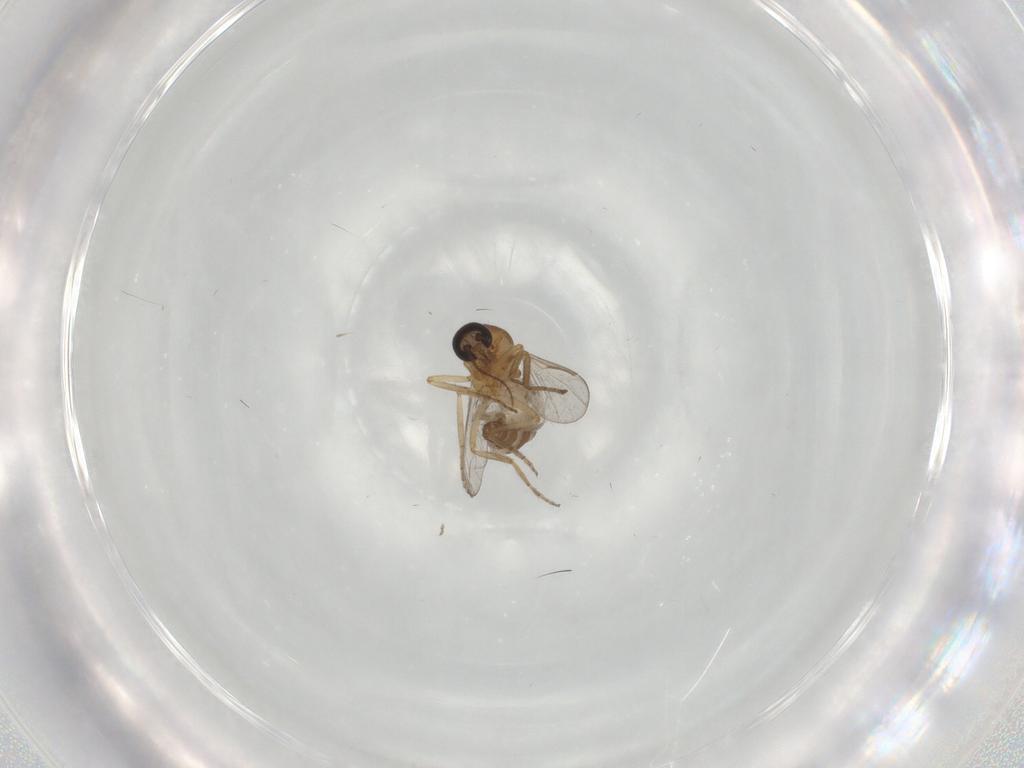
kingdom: Animalia
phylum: Arthropoda
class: Insecta
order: Diptera
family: Ceratopogonidae
